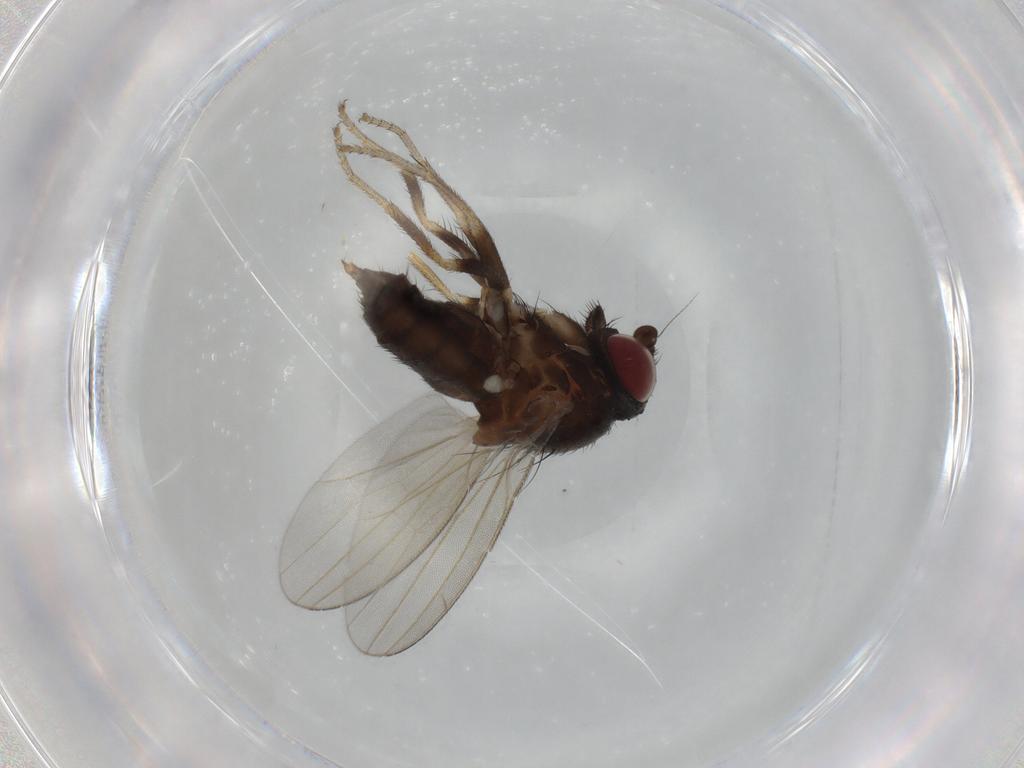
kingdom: Animalia
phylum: Arthropoda
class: Insecta
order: Diptera
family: Milichiidae
